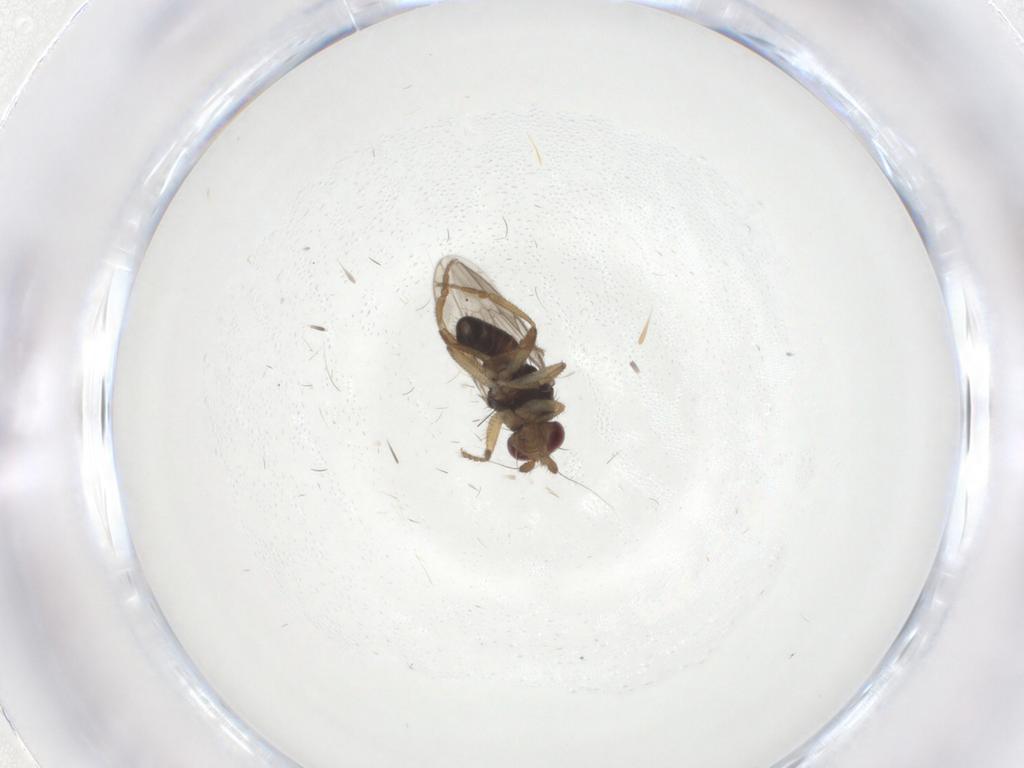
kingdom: Animalia
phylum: Arthropoda
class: Insecta
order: Diptera
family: Sphaeroceridae
